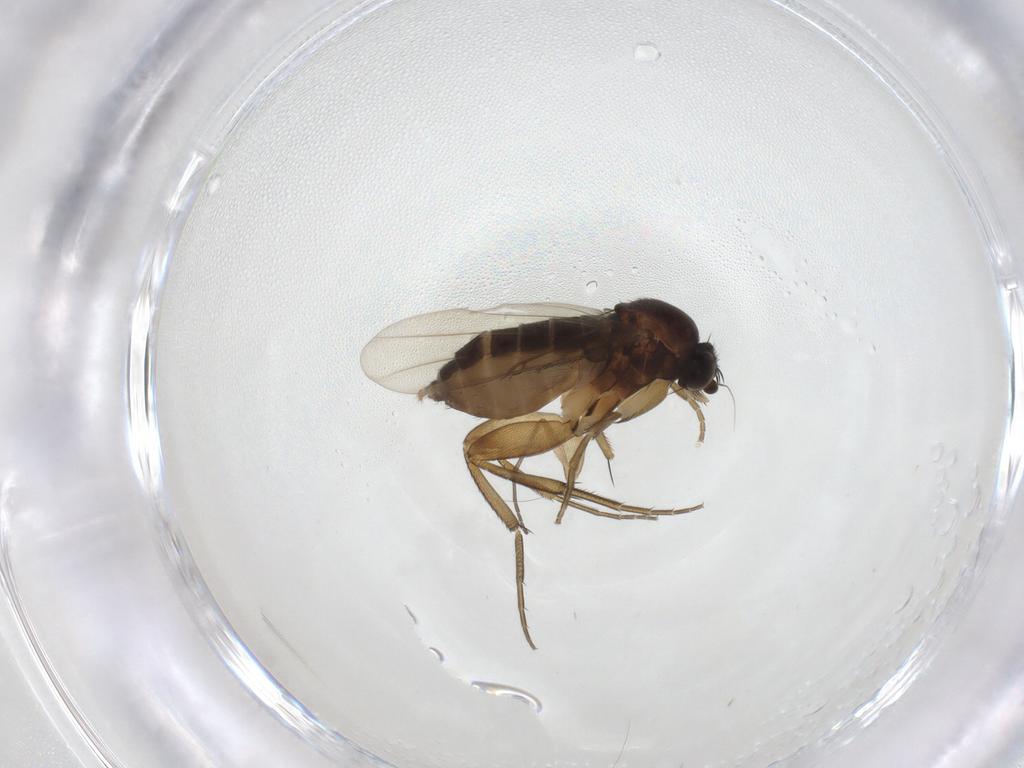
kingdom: Animalia
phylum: Arthropoda
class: Insecta
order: Diptera
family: Phoridae
